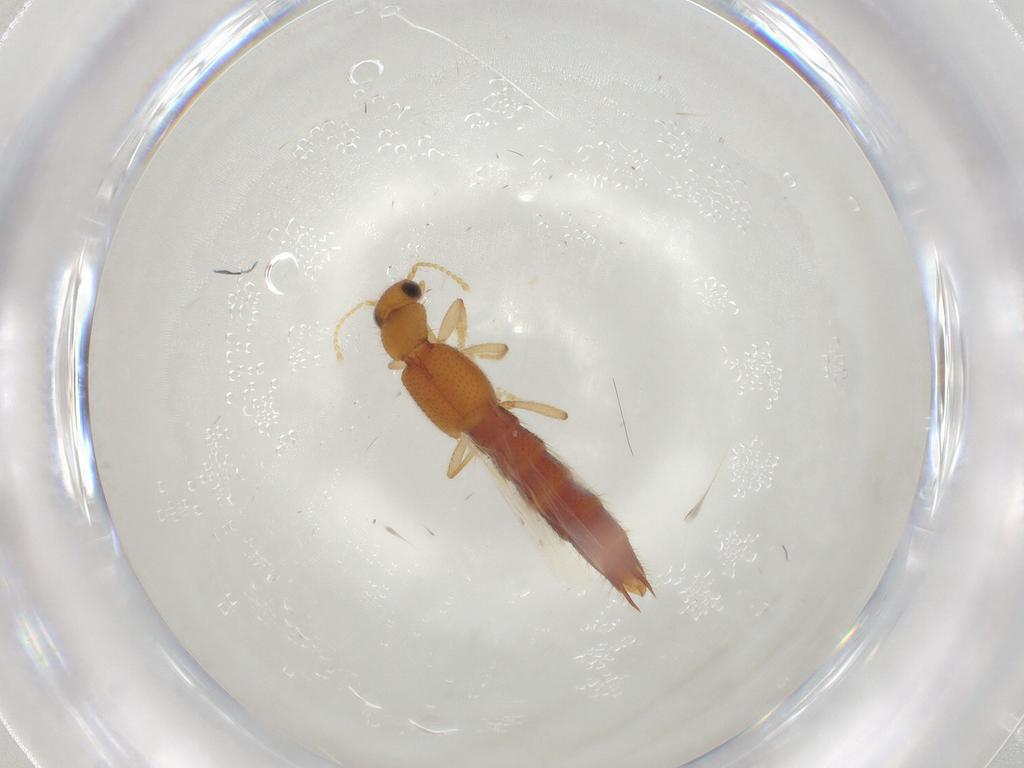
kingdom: Animalia
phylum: Arthropoda
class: Insecta
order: Coleoptera
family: Staphylinidae
